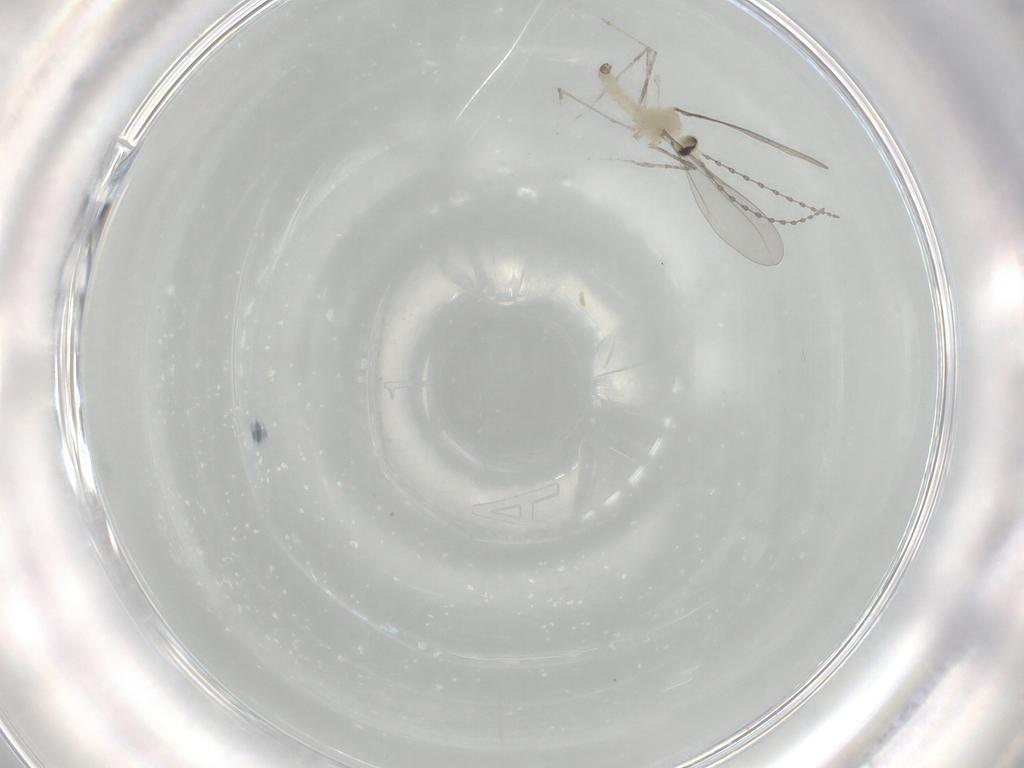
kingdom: Animalia
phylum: Arthropoda
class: Insecta
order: Diptera
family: Cecidomyiidae
